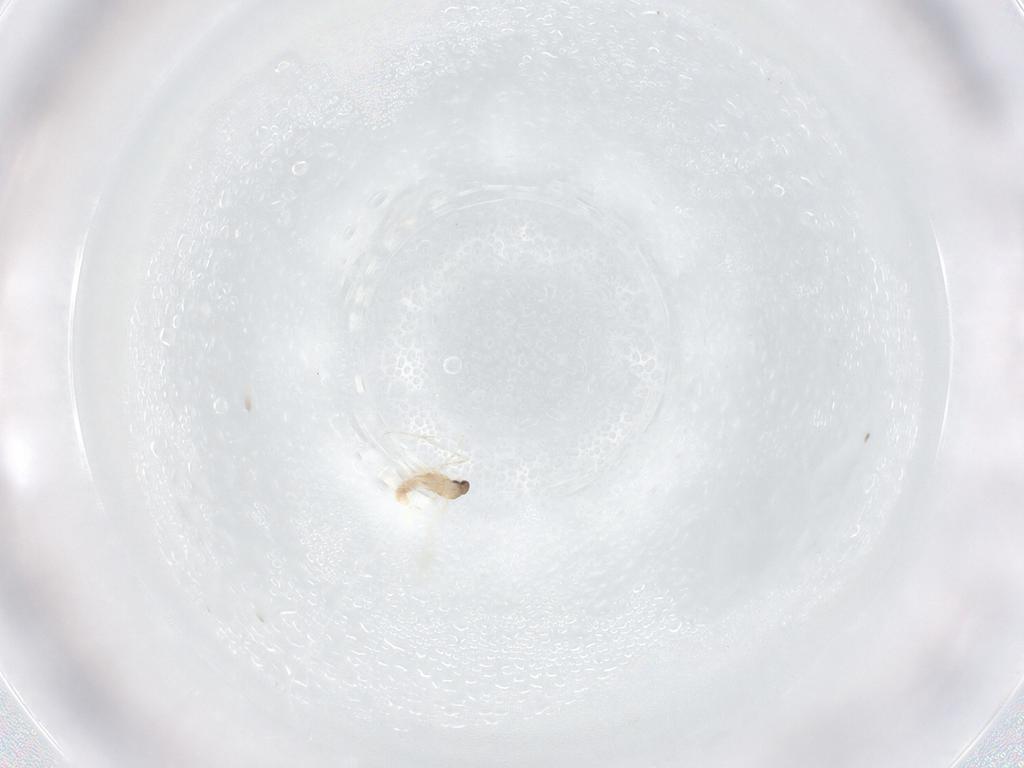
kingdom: Animalia
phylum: Arthropoda
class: Insecta
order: Diptera
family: Cecidomyiidae
